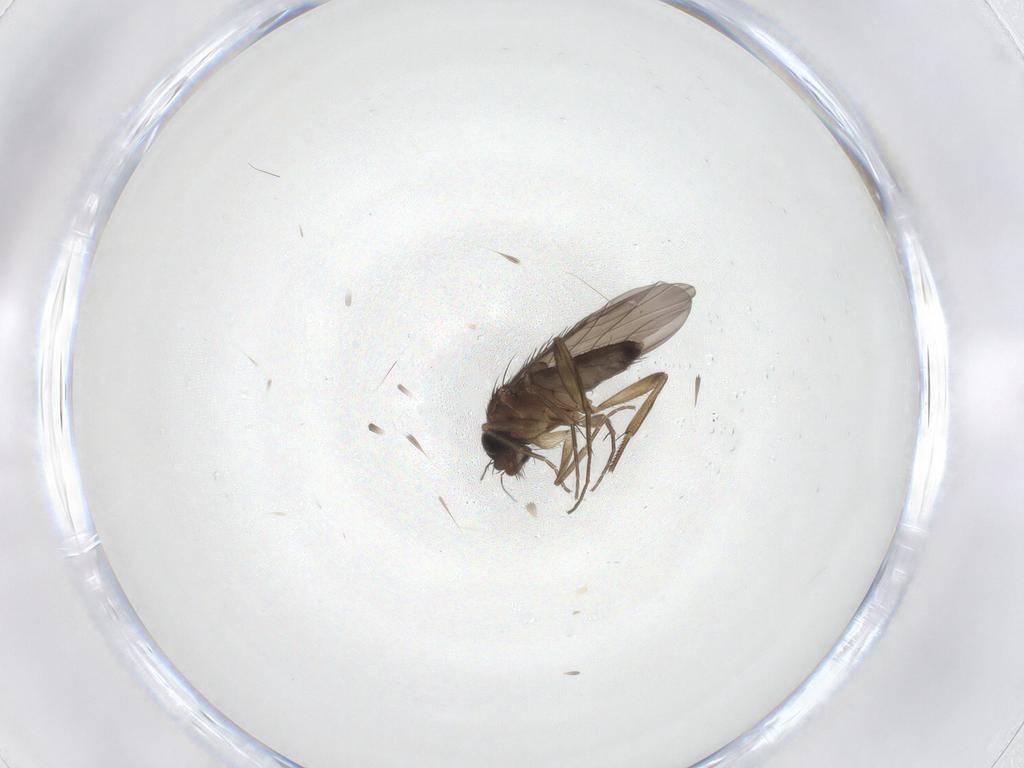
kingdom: Animalia
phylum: Arthropoda
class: Insecta
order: Diptera
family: Phoridae
